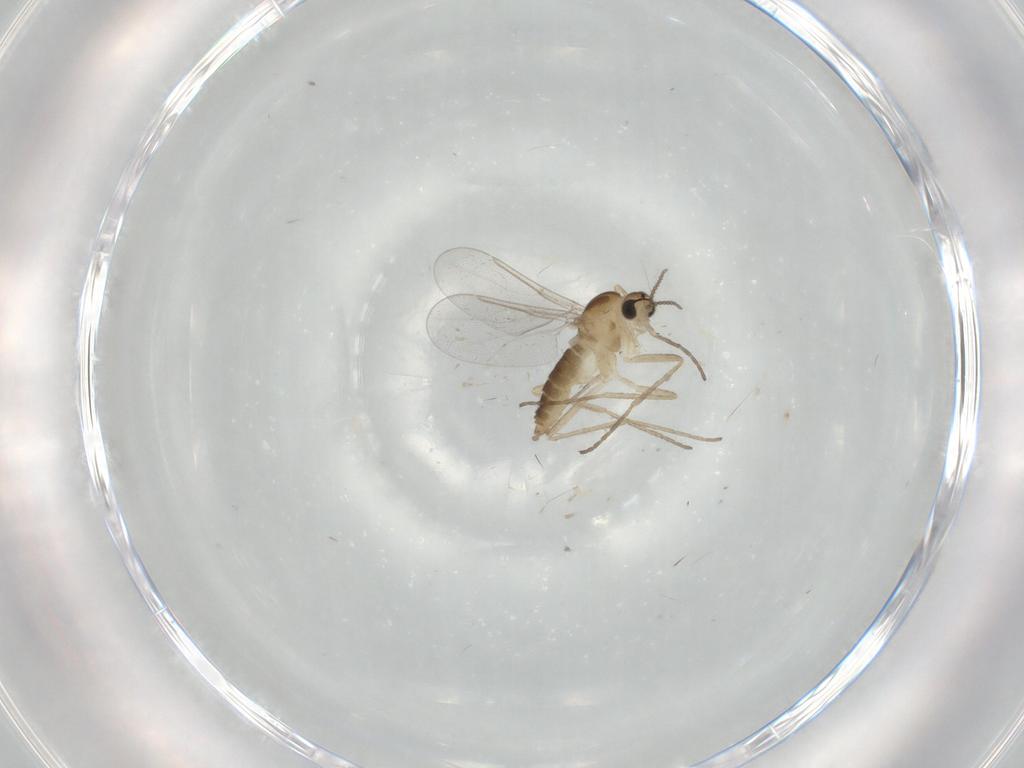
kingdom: Animalia
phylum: Arthropoda
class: Insecta
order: Diptera
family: Cecidomyiidae
